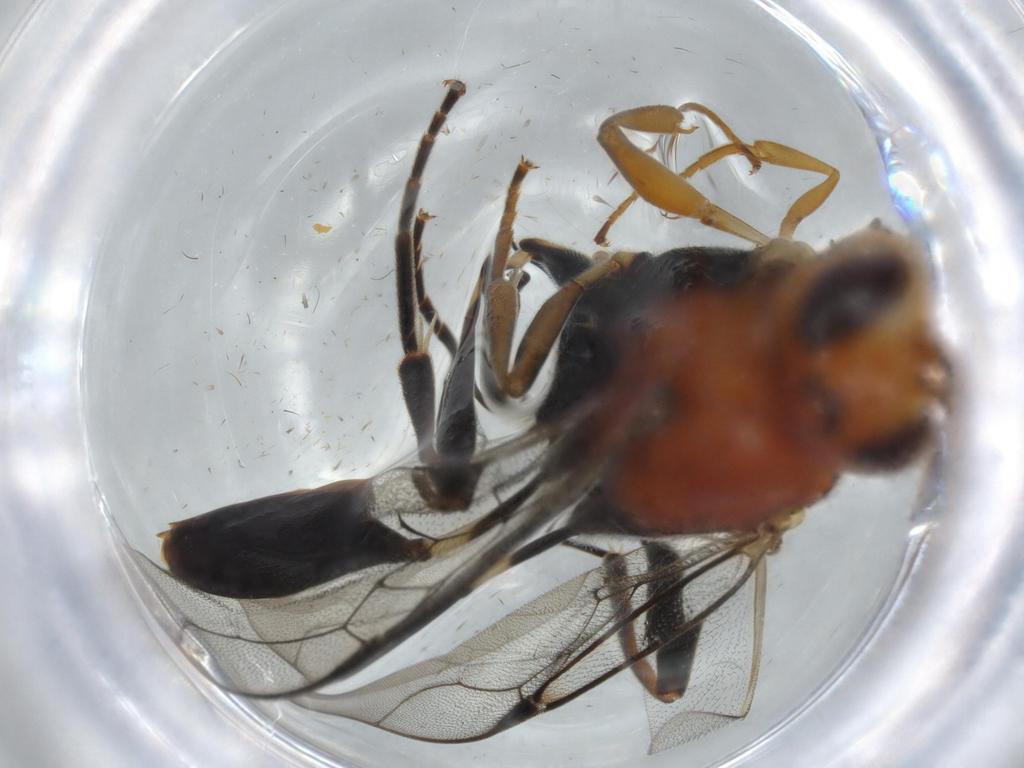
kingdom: Animalia
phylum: Arthropoda
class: Insecta
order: Hymenoptera
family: Evaniidae
